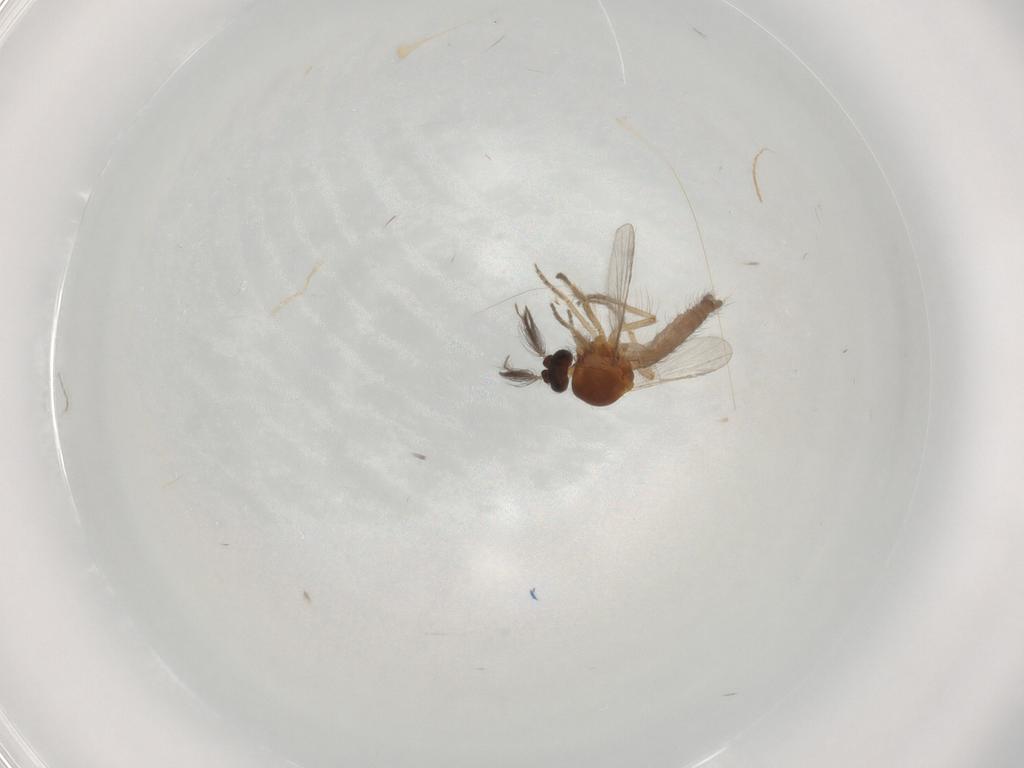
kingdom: Animalia
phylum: Arthropoda
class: Insecta
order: Diptera
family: Ceratopogonidae
